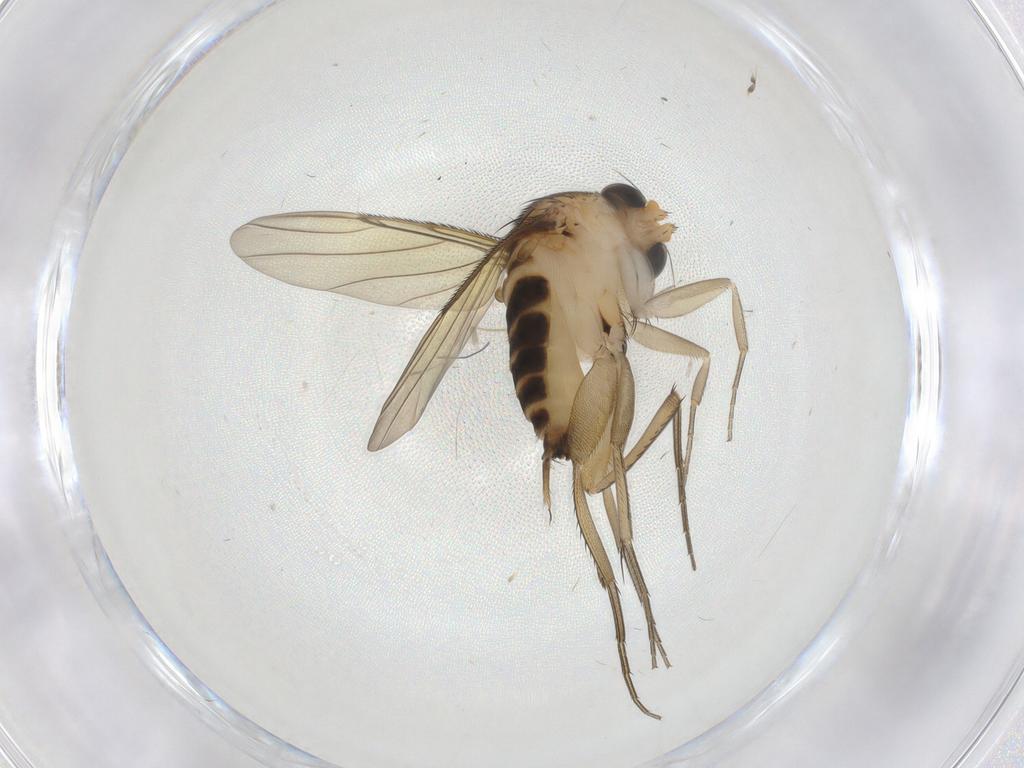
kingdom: Animalia
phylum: Arthropoda
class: Insecta
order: Diptera
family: Phoridae
